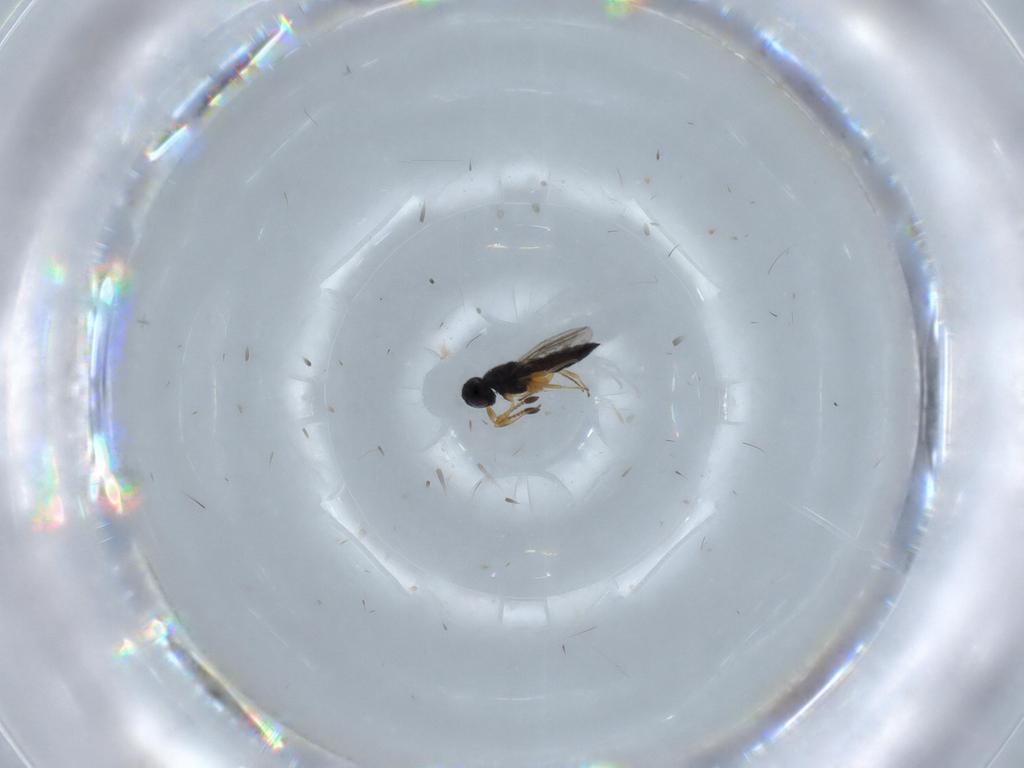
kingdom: Animalia
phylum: Arthropoda
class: Insecta
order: Hymenoptera
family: Scelionidae
